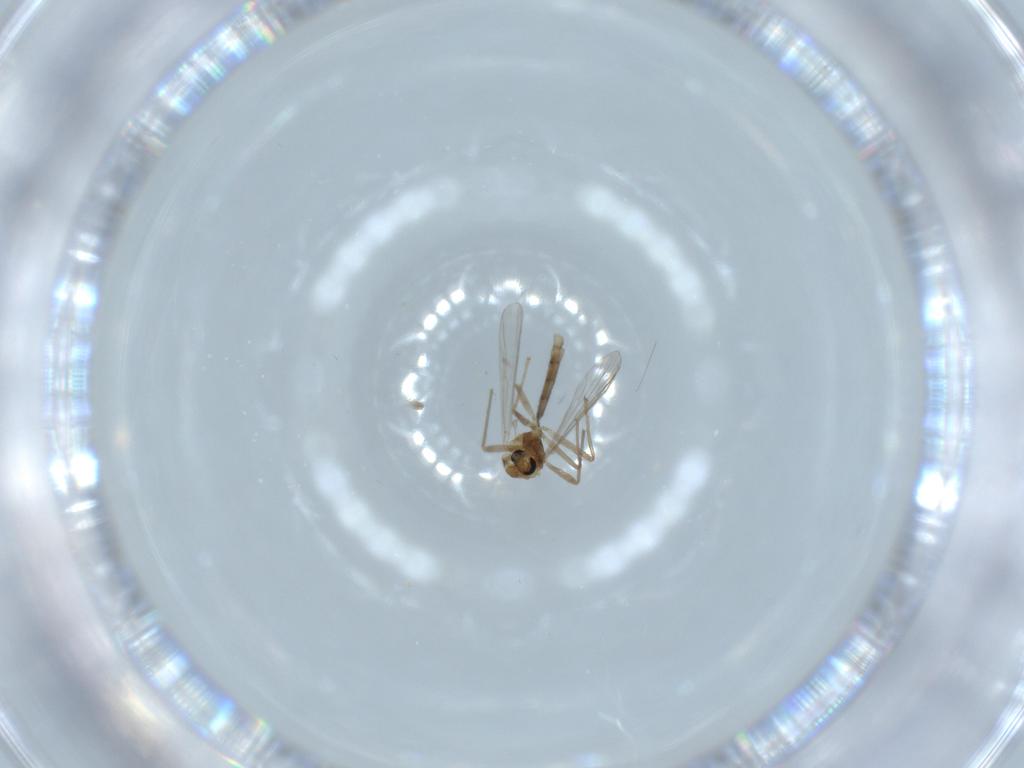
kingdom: Animalia
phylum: Arthropoda
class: Insecta
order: Diptera
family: Chironomidae
